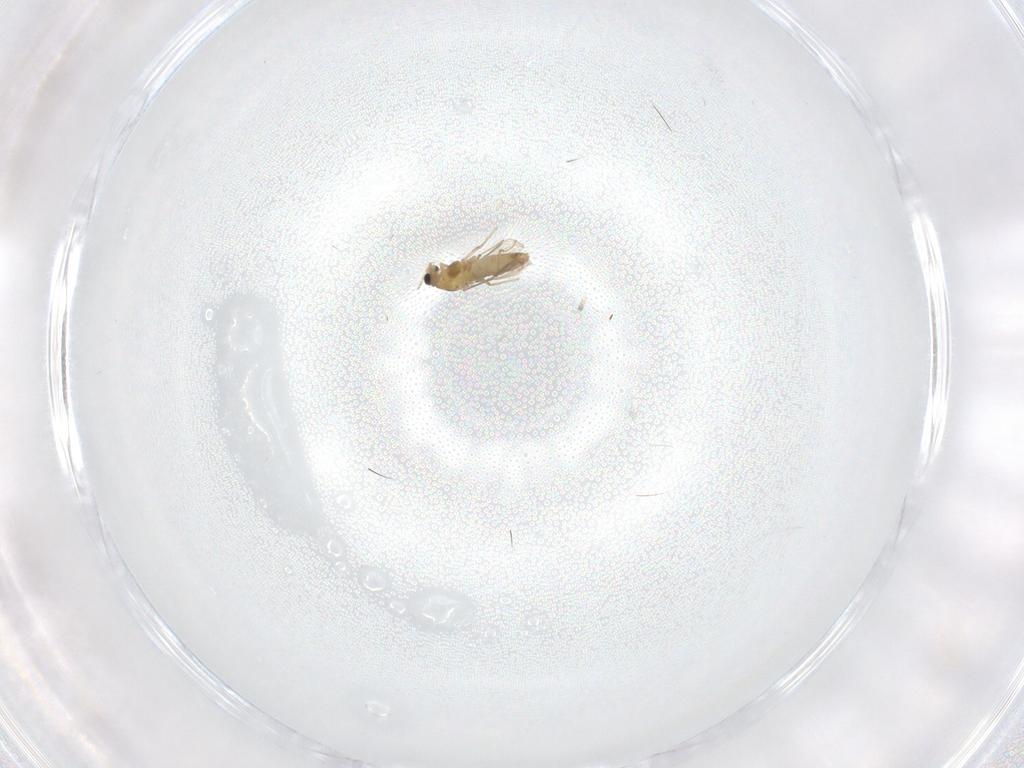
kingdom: Animalia
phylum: Arthropoda
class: Insecta
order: Diptera
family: Chironomidae
